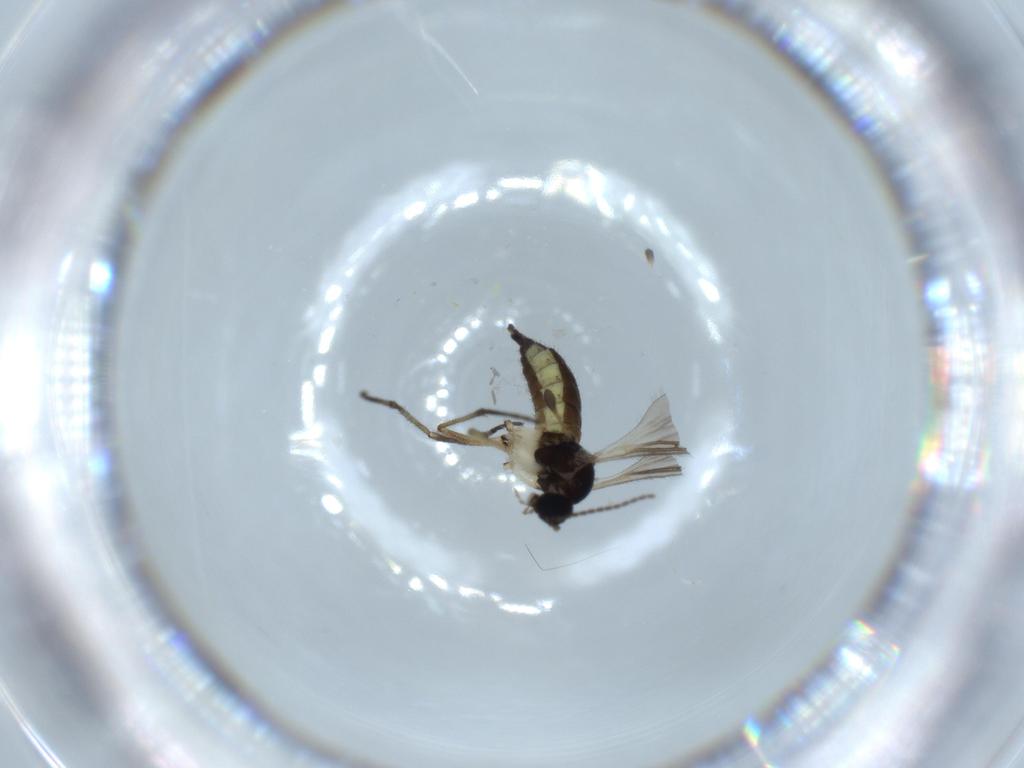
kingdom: Animalia
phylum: Arthropoda
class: Insecta
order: Diptera
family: Sciaridae
